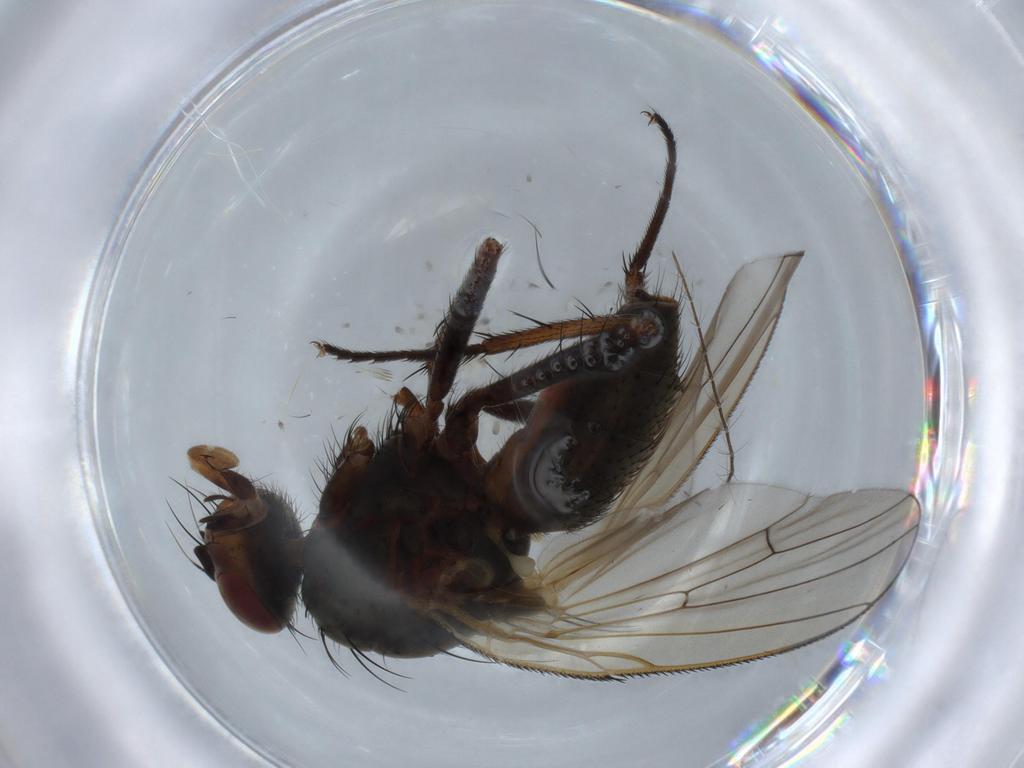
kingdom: Animalia
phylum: Arthropoda
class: Insecta
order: Diptera
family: Anthomyiidae
